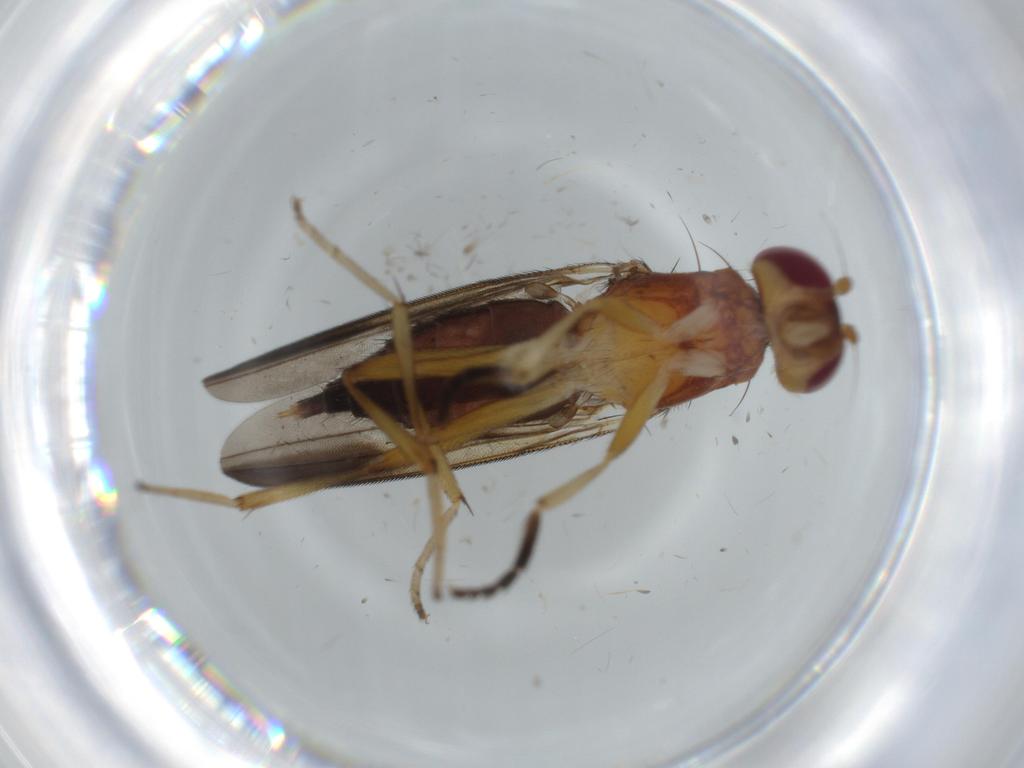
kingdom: Animalia
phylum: Arthropoda
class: Insecta
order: Diptera
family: Clusiidae
